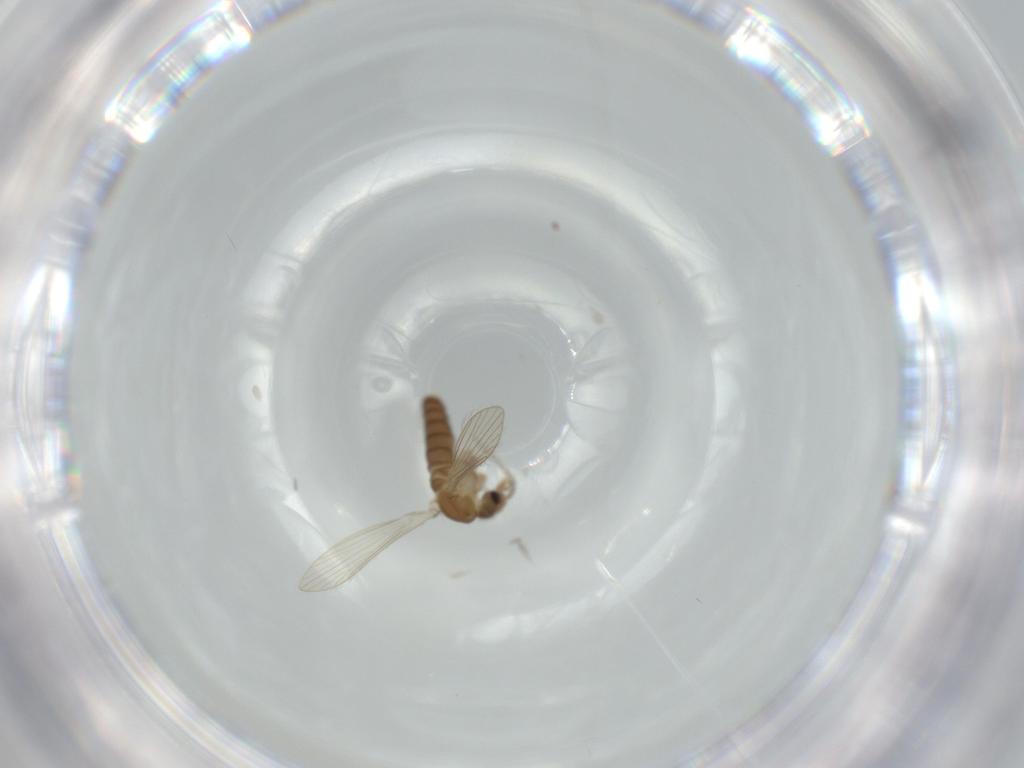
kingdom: Animalia
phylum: Arthropoda
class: Insecta
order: Diptera
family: Psychodidae
